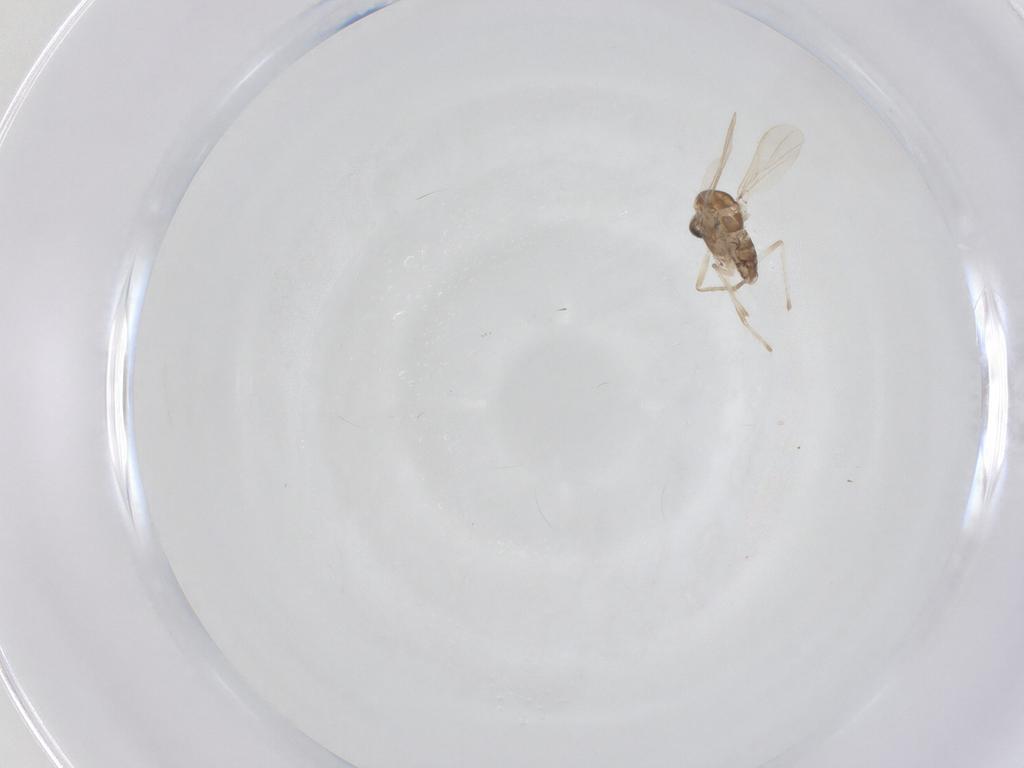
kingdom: Animalia
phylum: Arthropoda
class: Insecta
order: Diptera
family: Chironomidae
